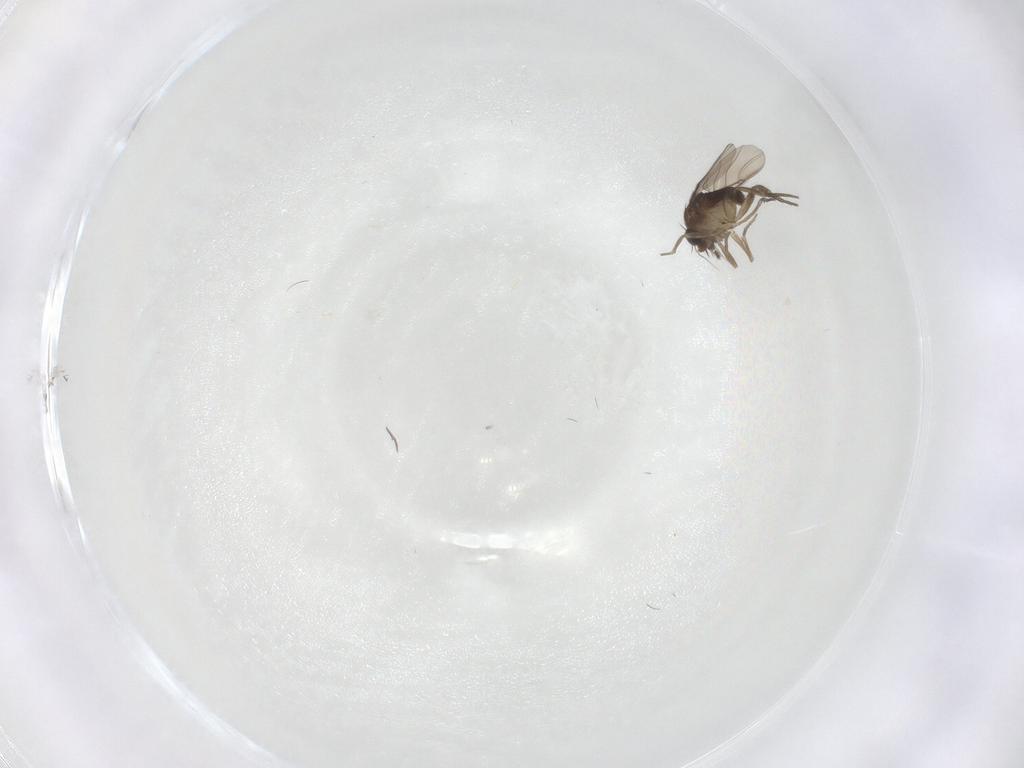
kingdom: Animalia
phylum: Arthropoda
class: Insecta
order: Diptera
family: Phoridae
